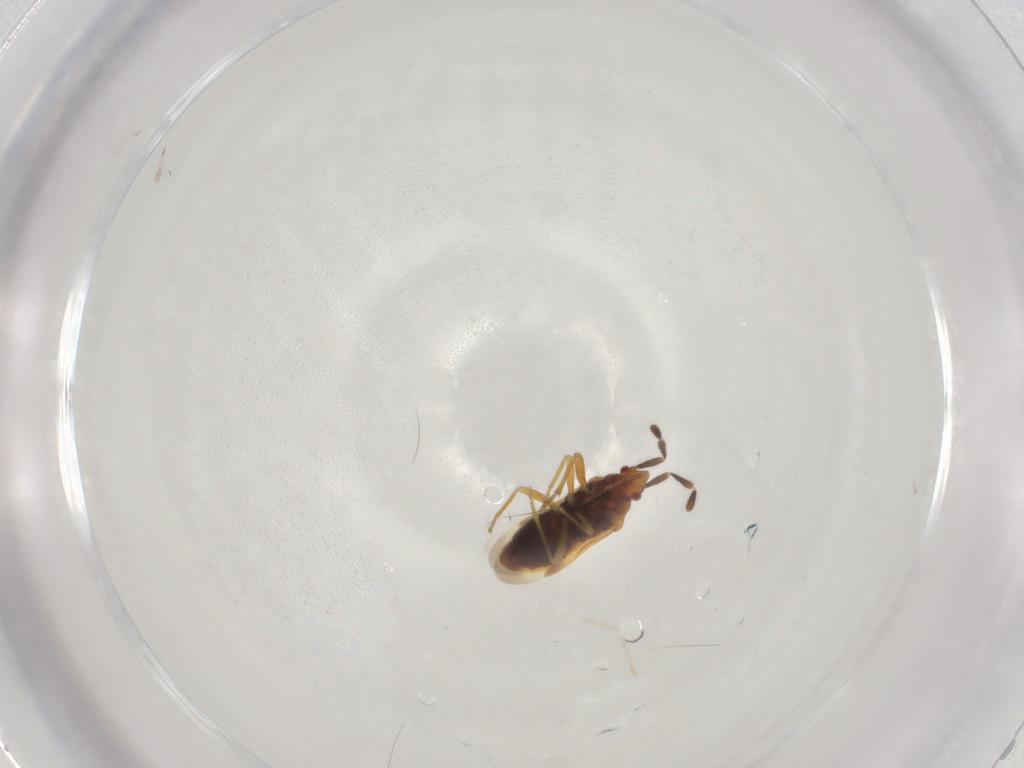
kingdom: Animalia
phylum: Arthropoda
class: Insecta
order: Hemiptera
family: Rhyparochromidae
